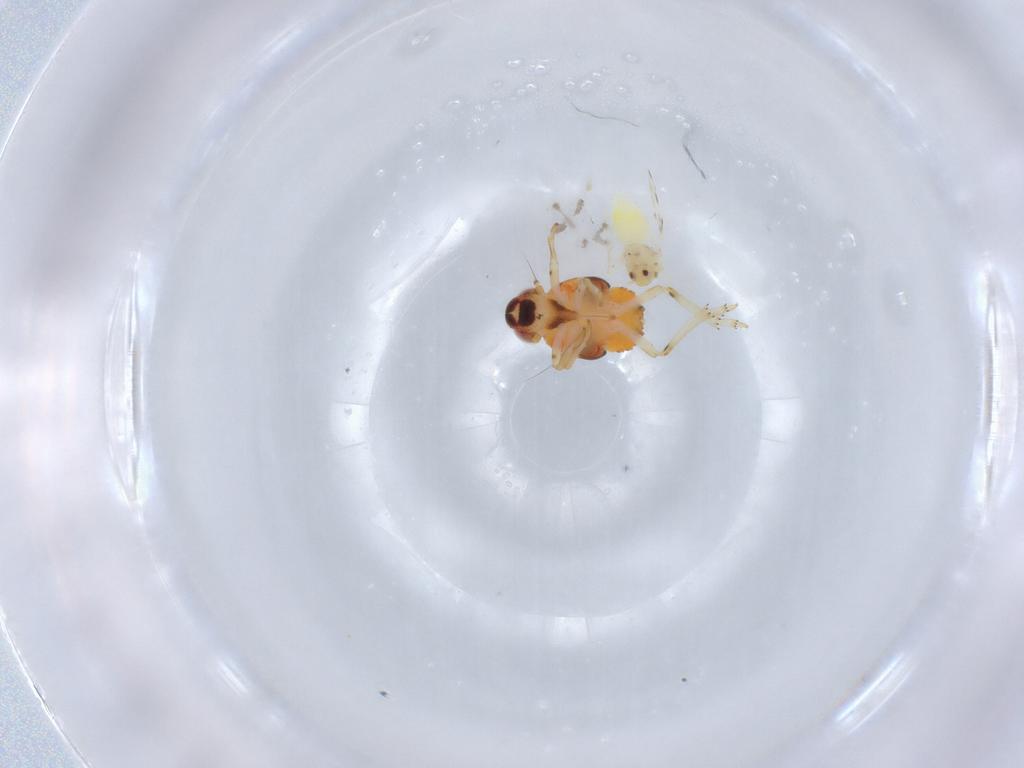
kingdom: Animalia
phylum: Arthropoda
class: Insecta
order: Hemiptera
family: Aleyrodidae
